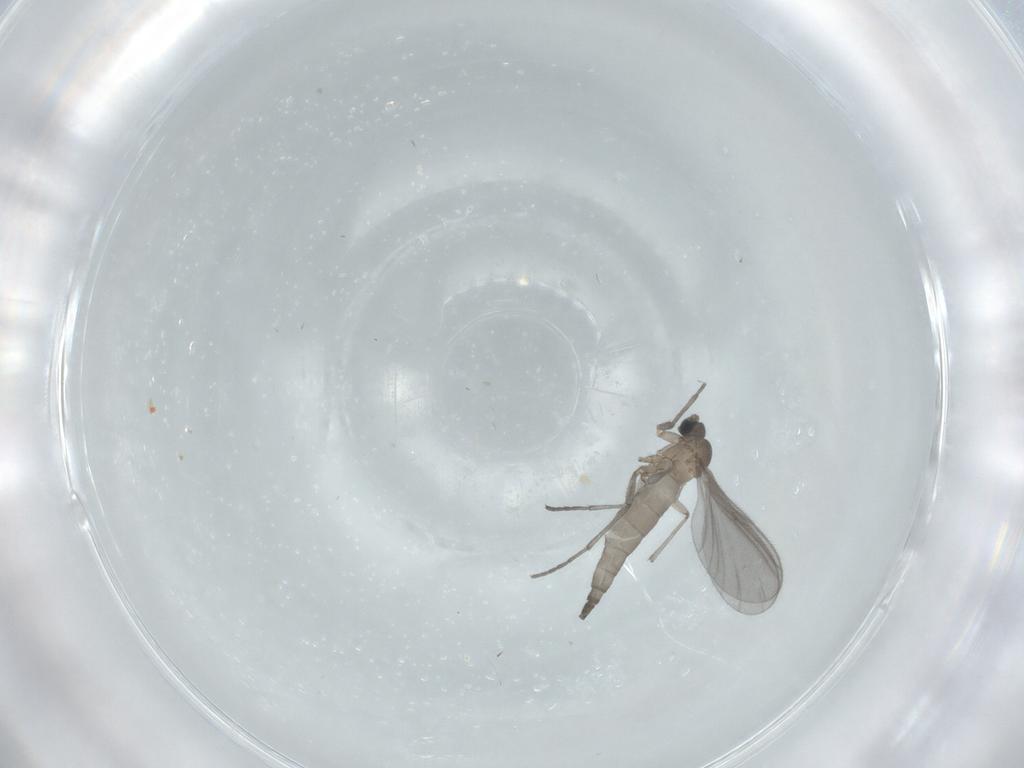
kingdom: Animalia
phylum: Arthropoda
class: Insecta
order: Diptera
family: Sciaridae
